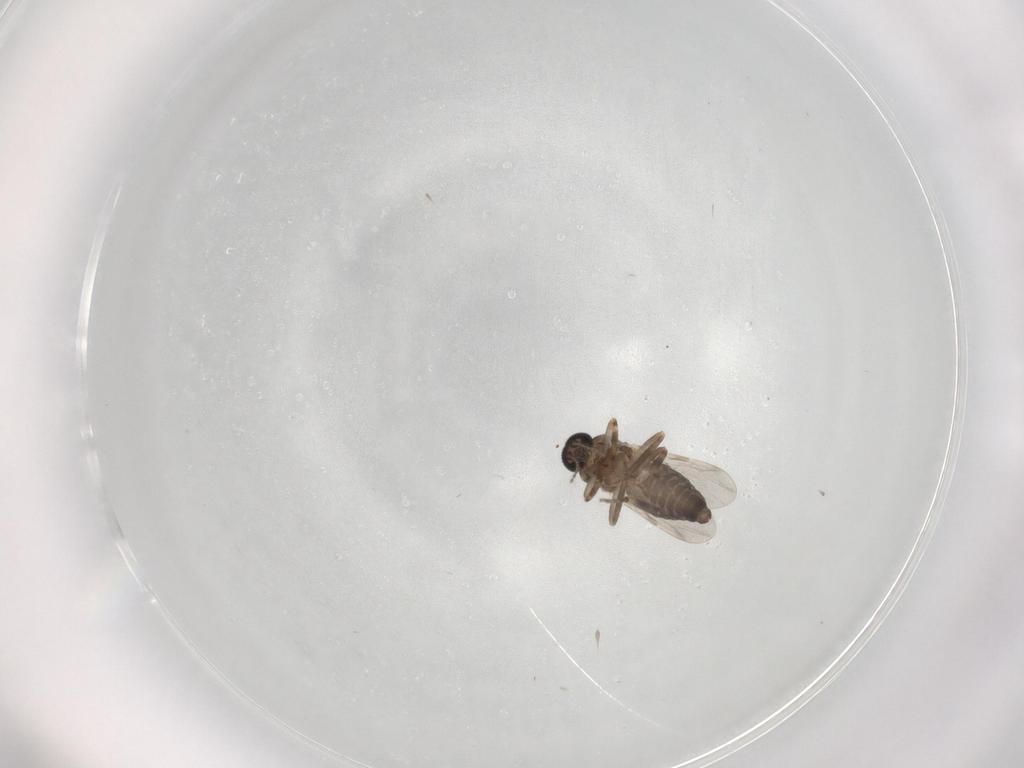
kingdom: Animalia
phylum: Arthropoda
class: Insecta
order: Diptera
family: Ceratopogonidae
